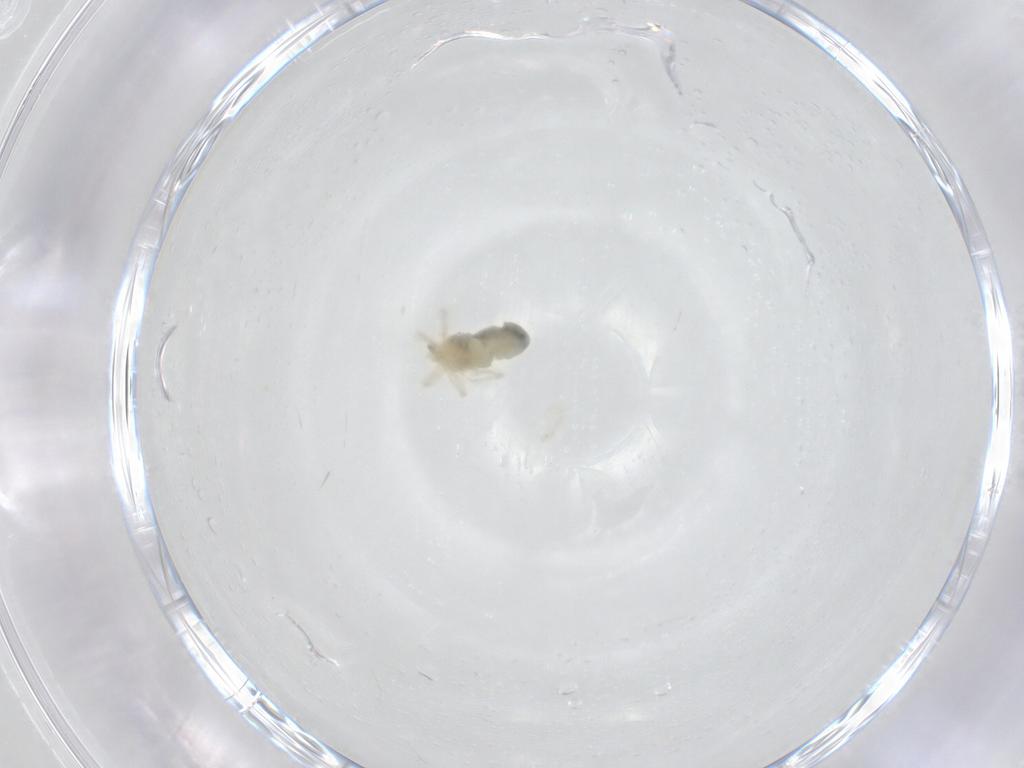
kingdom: Animalia
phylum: Arthropoda
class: Arachnida
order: Trombidiformes
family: Anystidae
